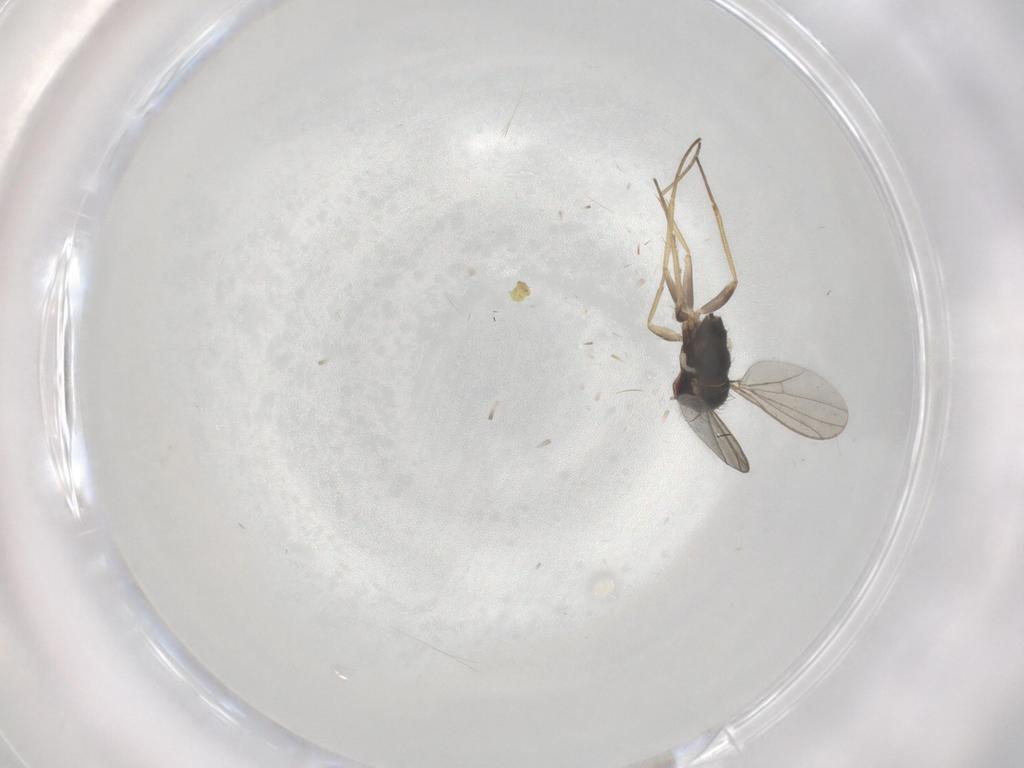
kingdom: Animalia
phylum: Arthropoda
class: Insecta
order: Diptera
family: Dolichopodidae
